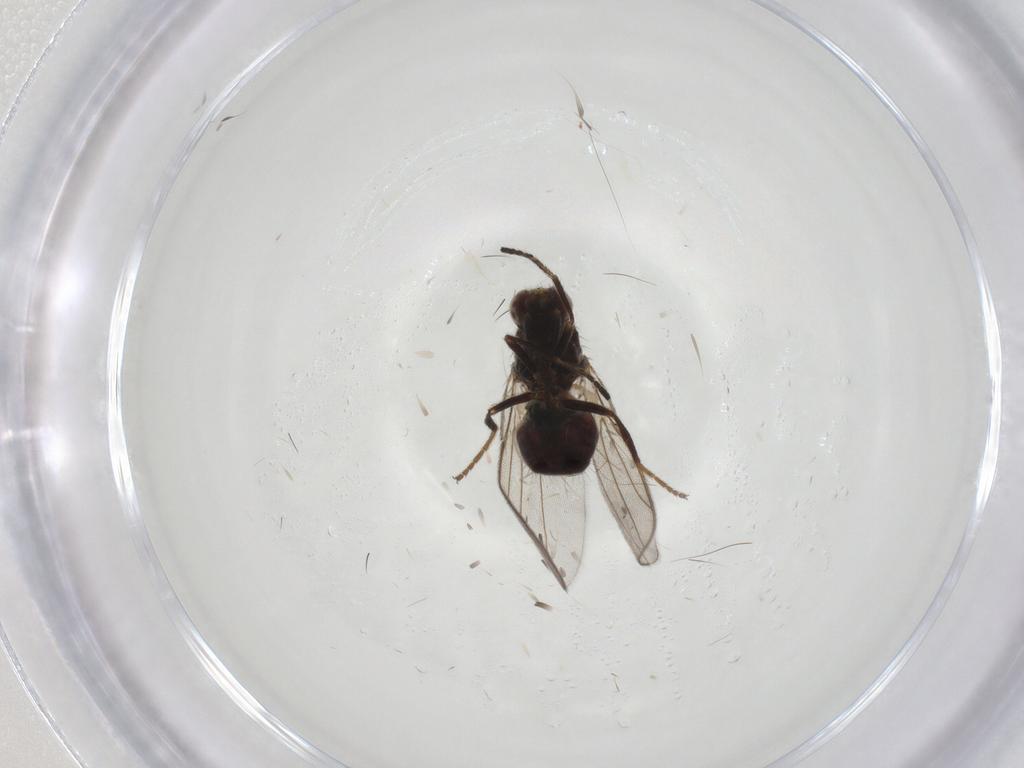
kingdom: Animalia
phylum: Arthropoda
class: Insecta
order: Diptera
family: Chloropidae
